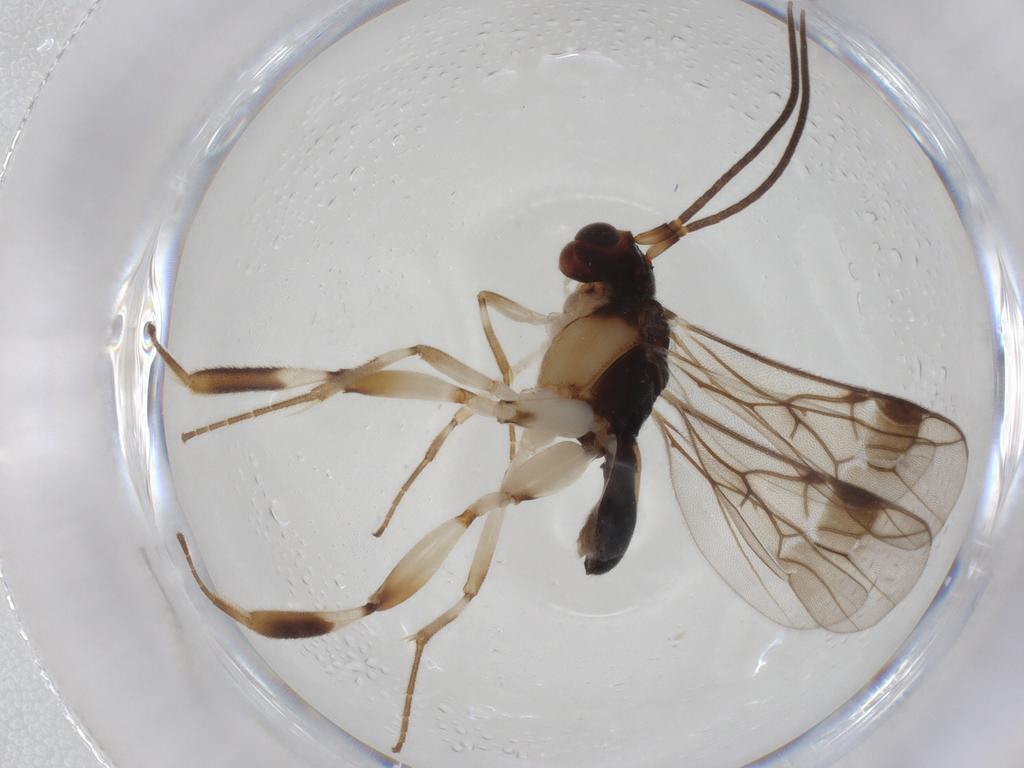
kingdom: Animalia
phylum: Arthropoda
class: Insecta
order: Hymenoptera
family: Braconidae
